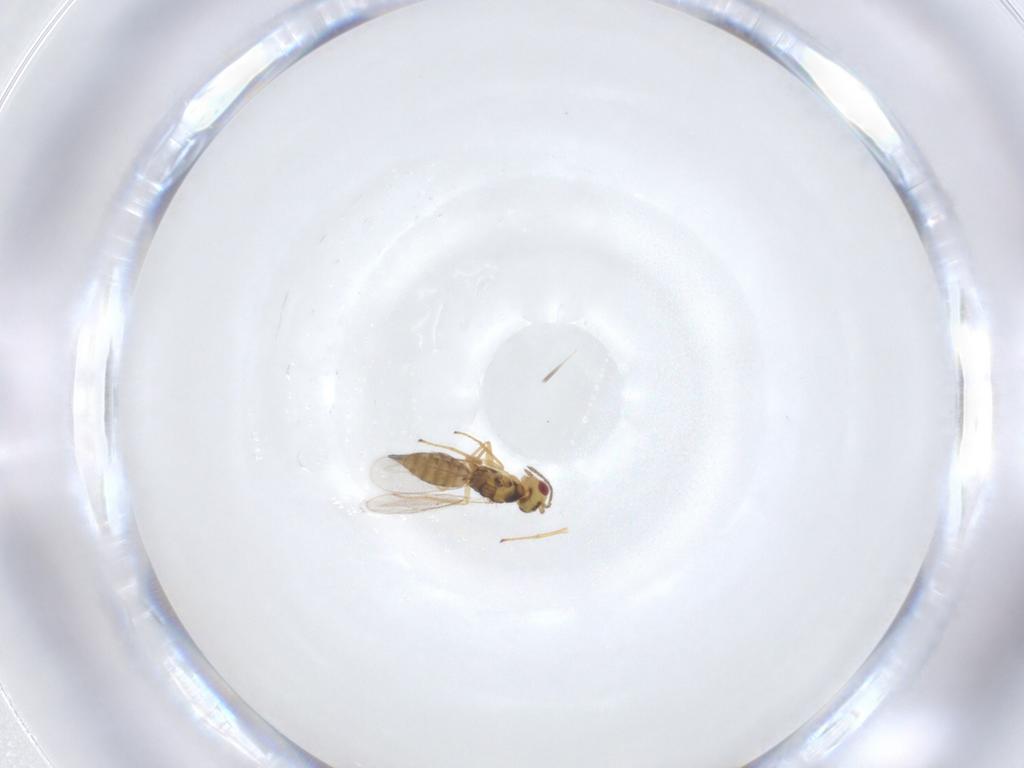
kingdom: Animalia
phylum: Arthropoda
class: Insecta
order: Hymenoptera
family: Eulophidae
